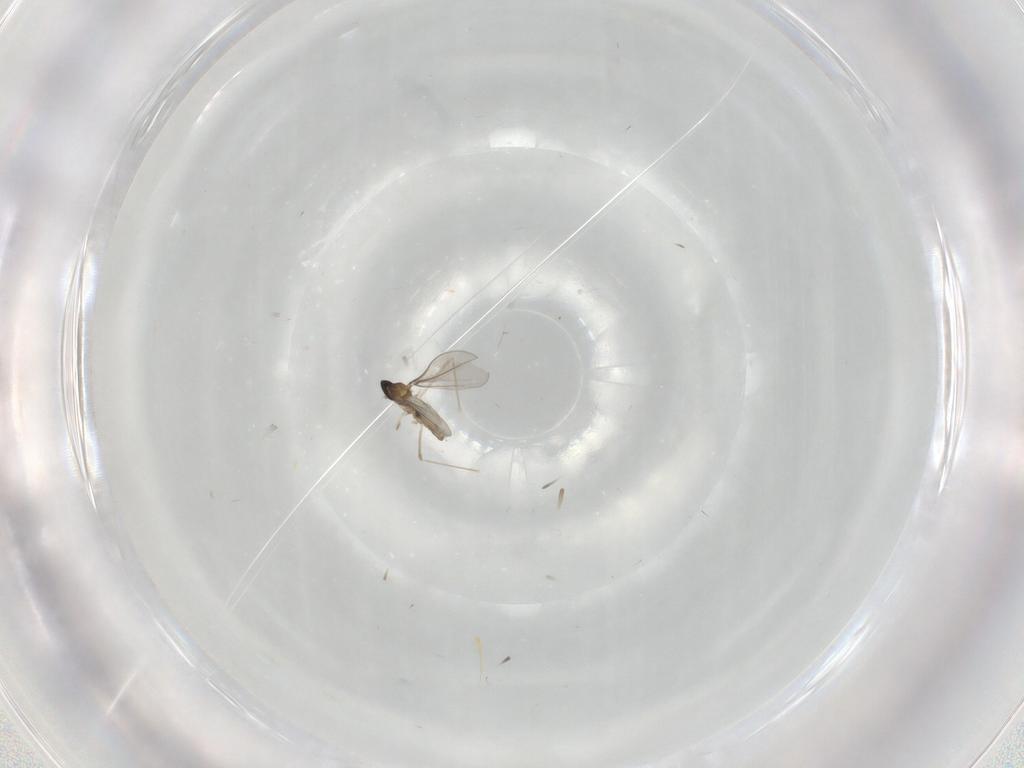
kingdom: Animalia
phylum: Arthropoda
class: Insecta
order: Diptera
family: Cecidomyiidae
